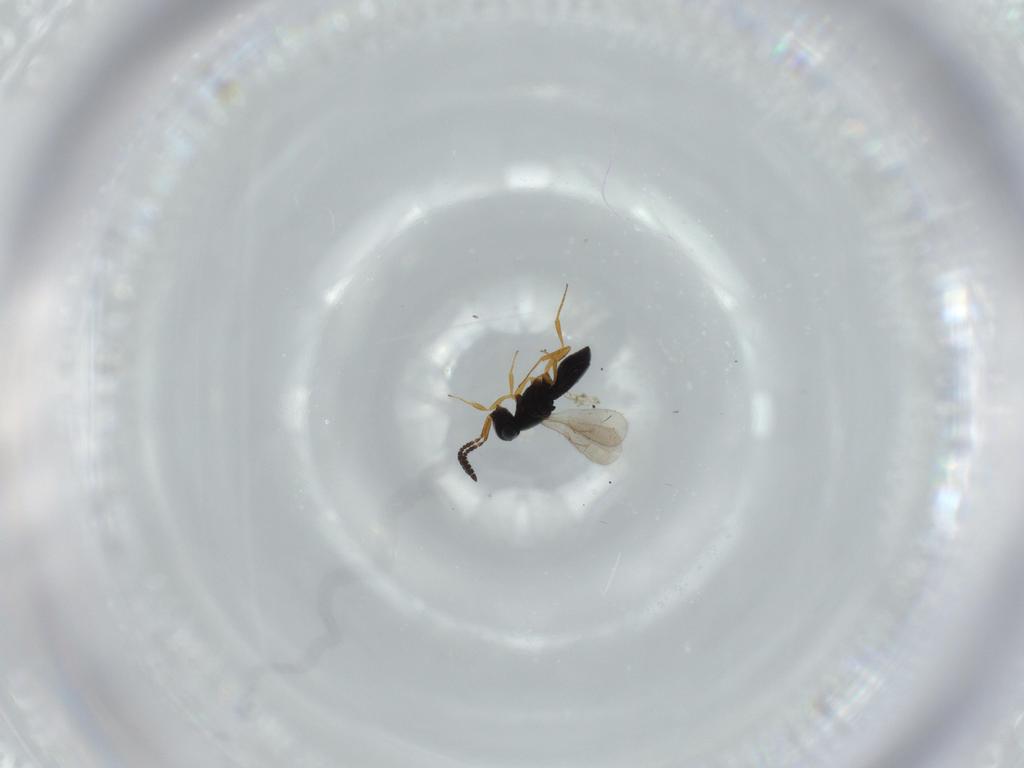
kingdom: Animalia
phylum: Arthropoda
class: Insecta
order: Hymenoptera
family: Scelionidae
